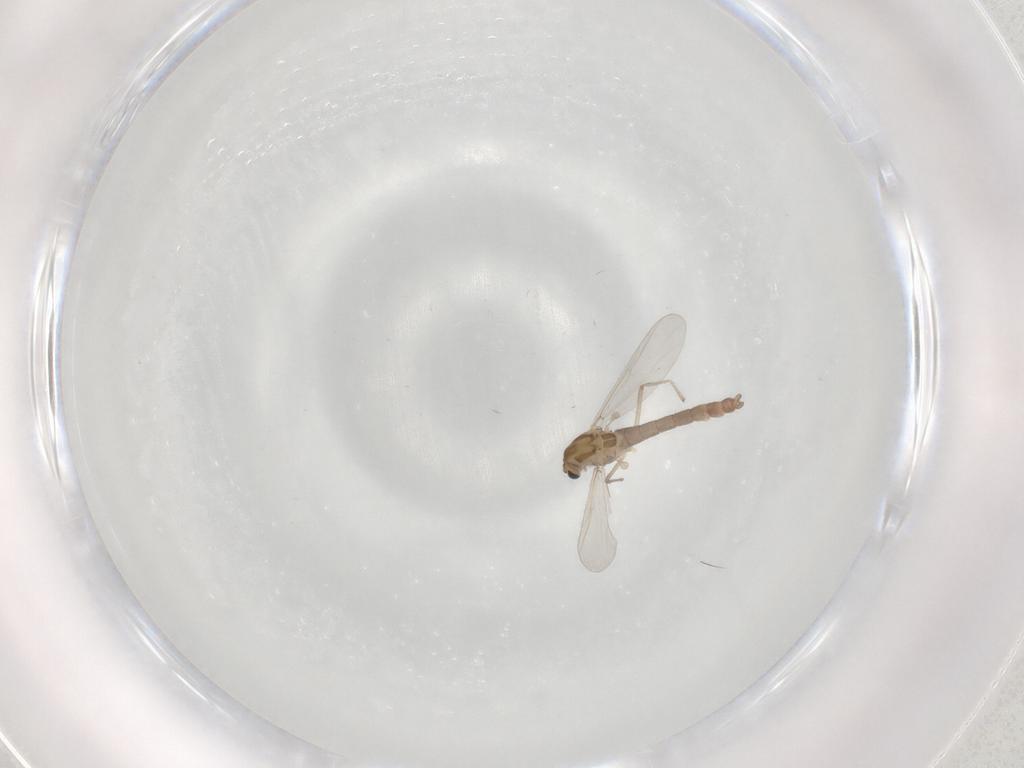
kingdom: Animalia
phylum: Arthropoda
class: Insecta
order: Diptera
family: Chironomidae
